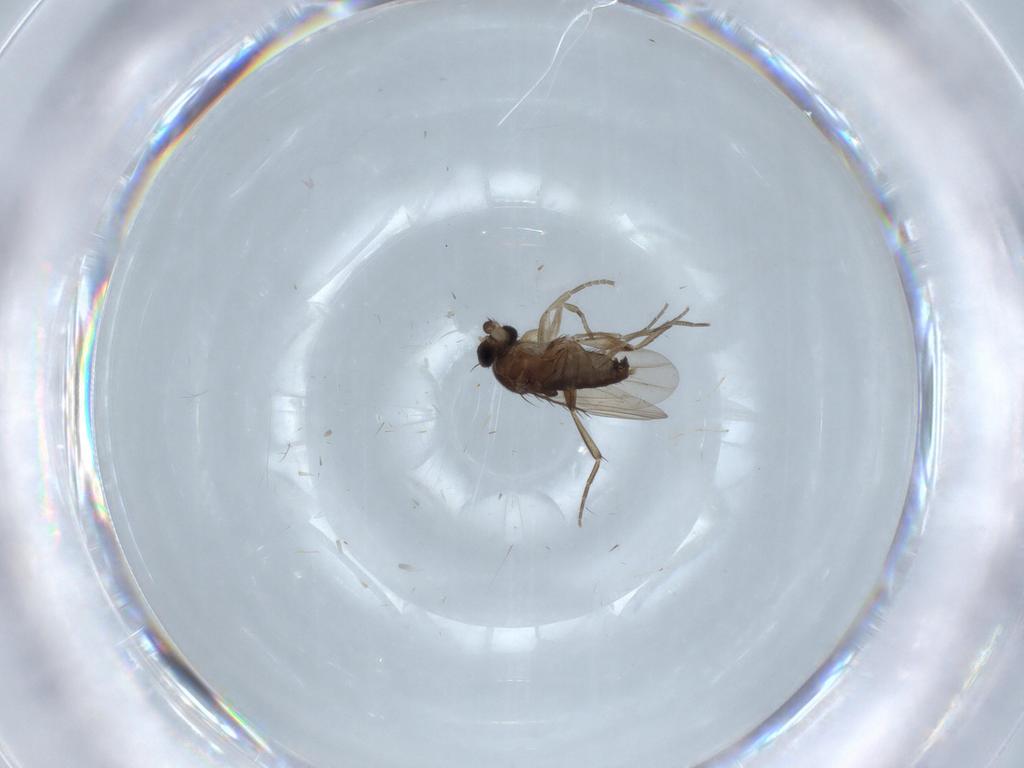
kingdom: Animalia
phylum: Arthropoda
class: Insecta
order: Diptera
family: Phoridae
